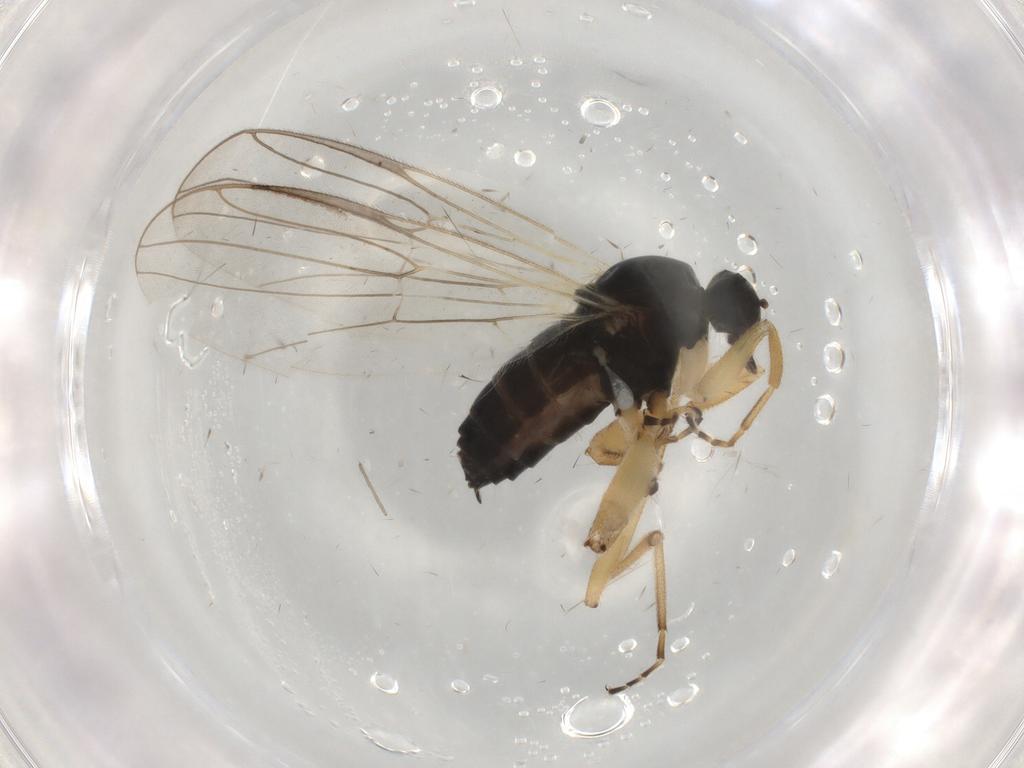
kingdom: Animalia
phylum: Arthropoda
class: Insecta
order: Diptera
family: Hybotidae
